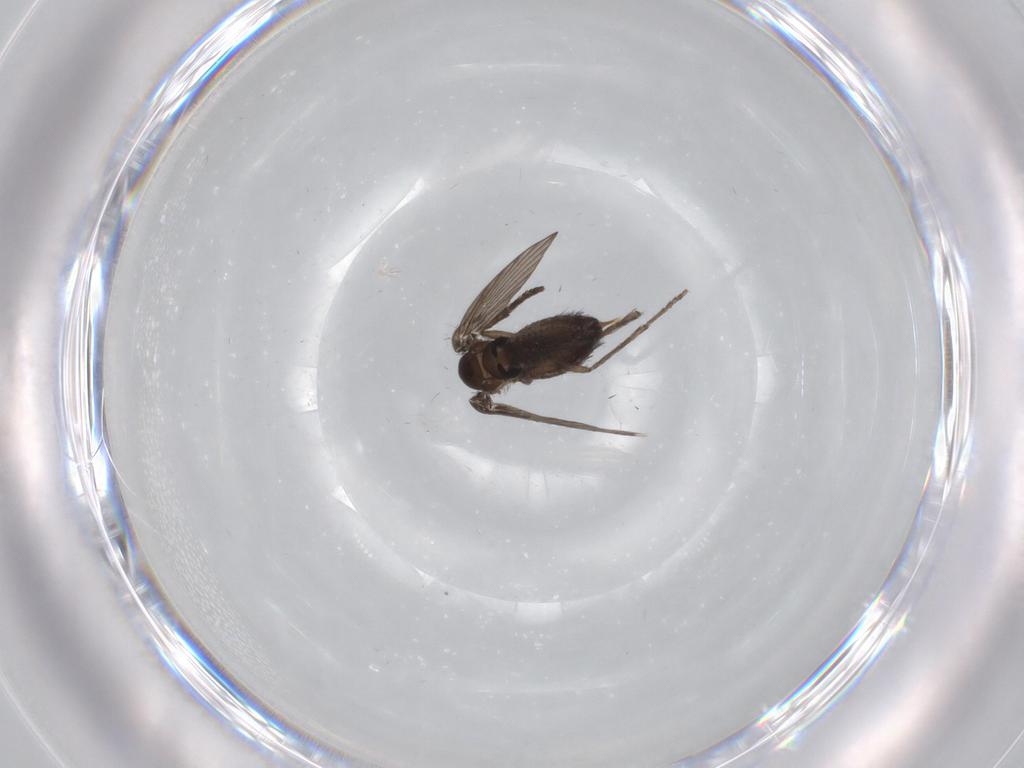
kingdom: Animalia
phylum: Arthropoda
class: Insecta
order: Diptera
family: Psychodidae
